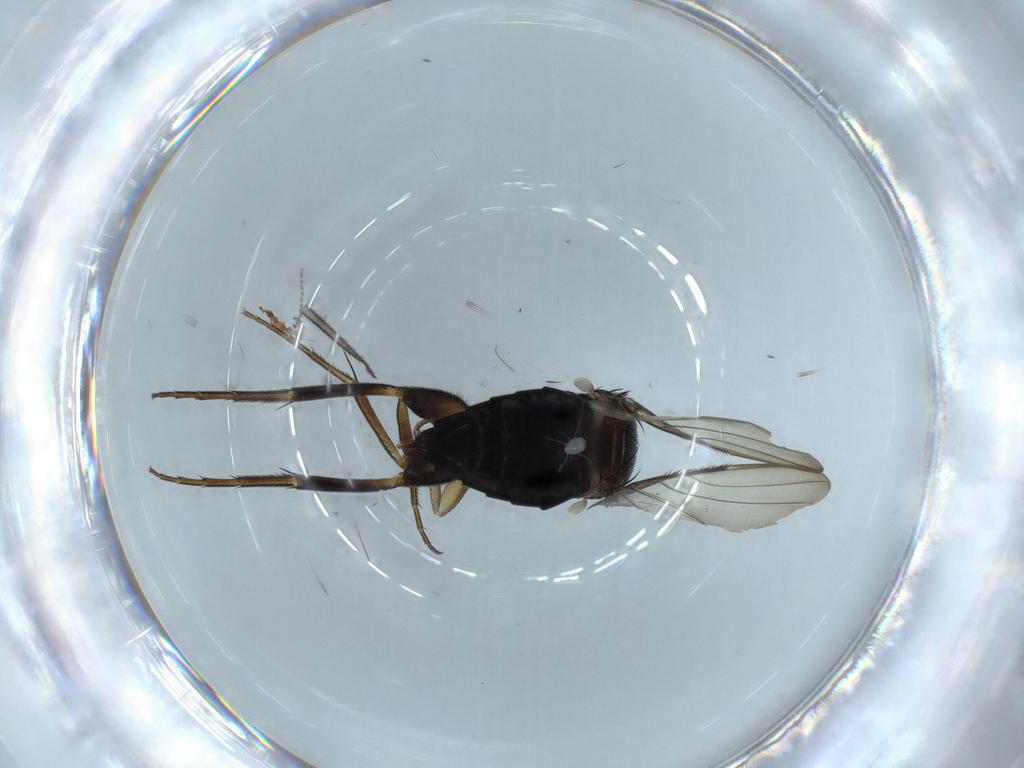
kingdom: Animalia
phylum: Arthropoda
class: Insecta
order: Diptera
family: Phoridae
